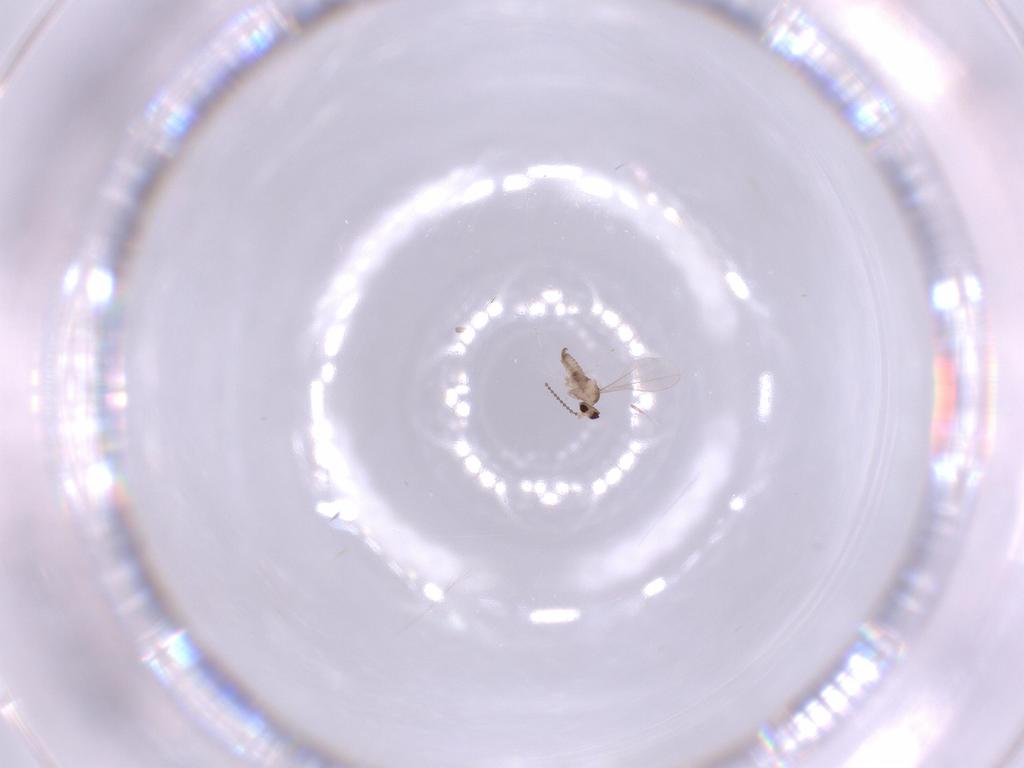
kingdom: Animalia
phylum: Arthropoda
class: Insecta
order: Diptera
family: Cecidomyiidae
